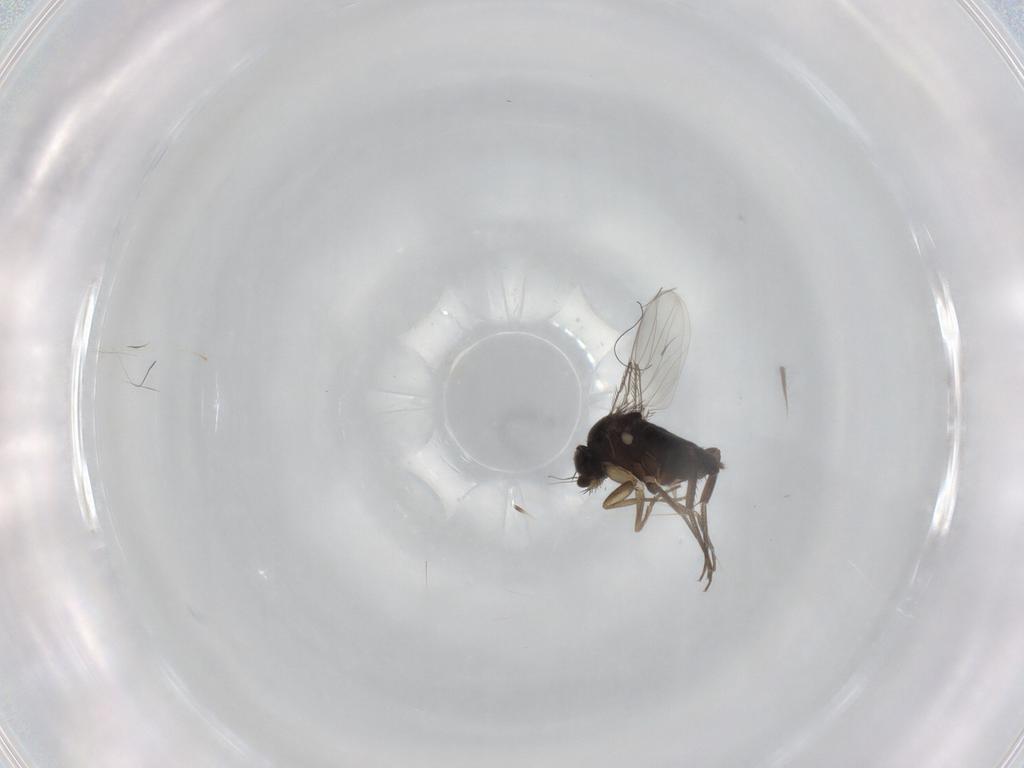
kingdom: Animalia
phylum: Arthropoda
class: Insecta
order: Diptera
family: Phoridae
